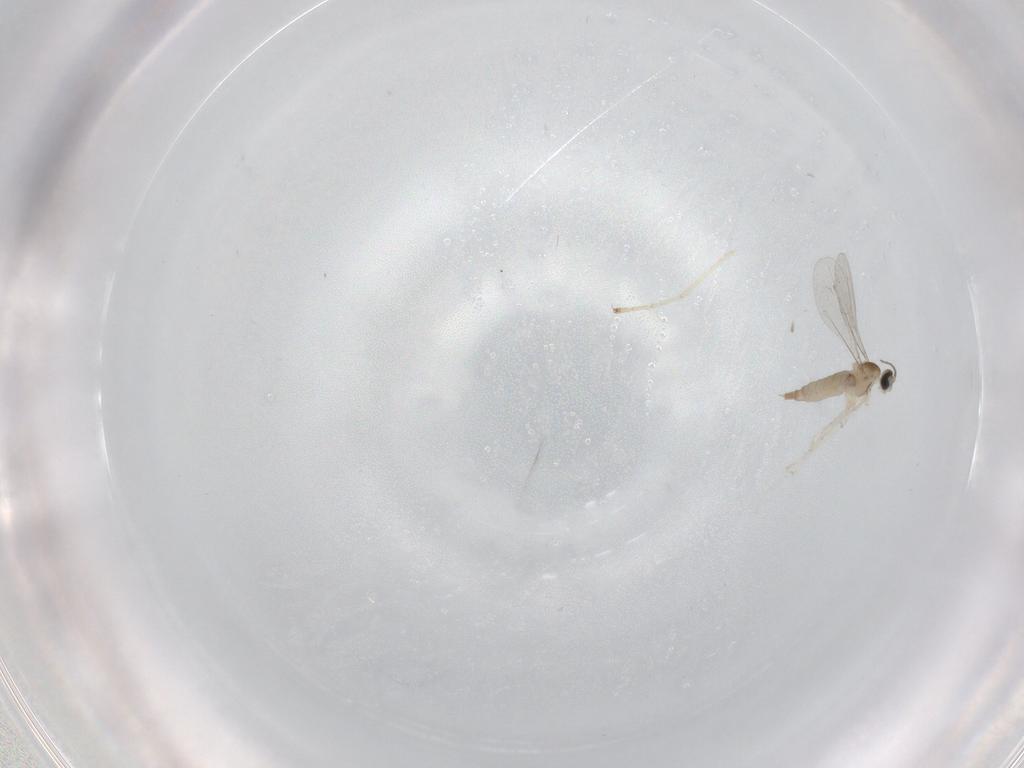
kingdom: Animalia
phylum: Arthropoda
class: Insecta
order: Diptera
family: Cecidomyiidae
